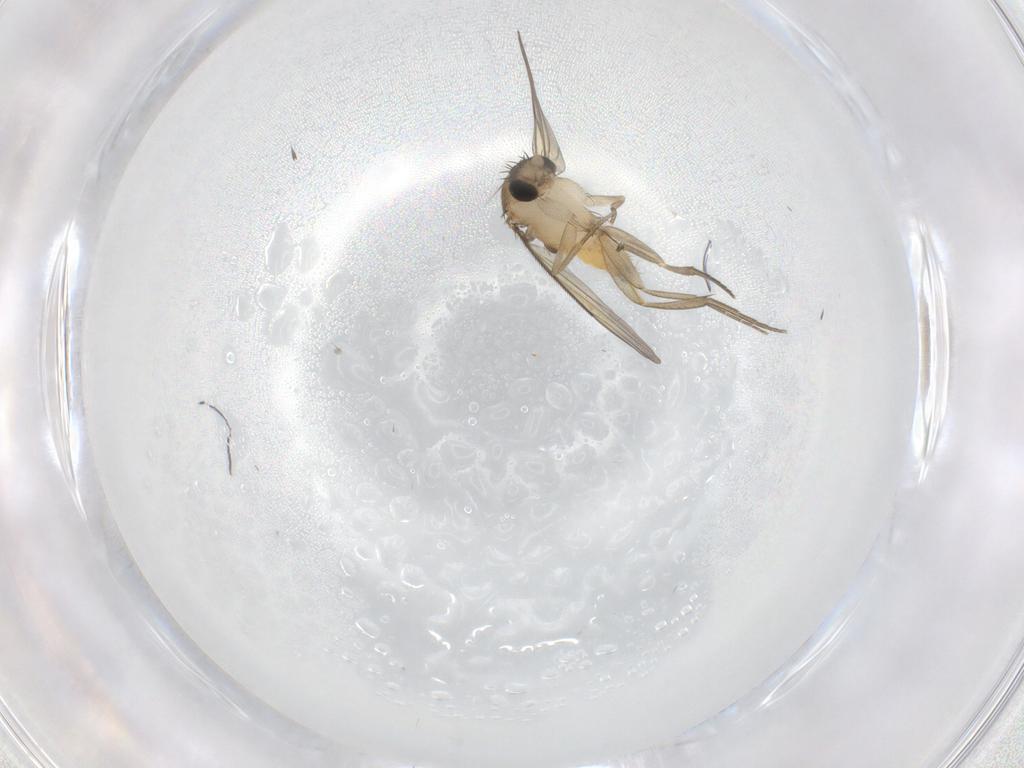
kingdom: Animalia
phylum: Arthropoda
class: Insecta
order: Diptera
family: Phoridae
